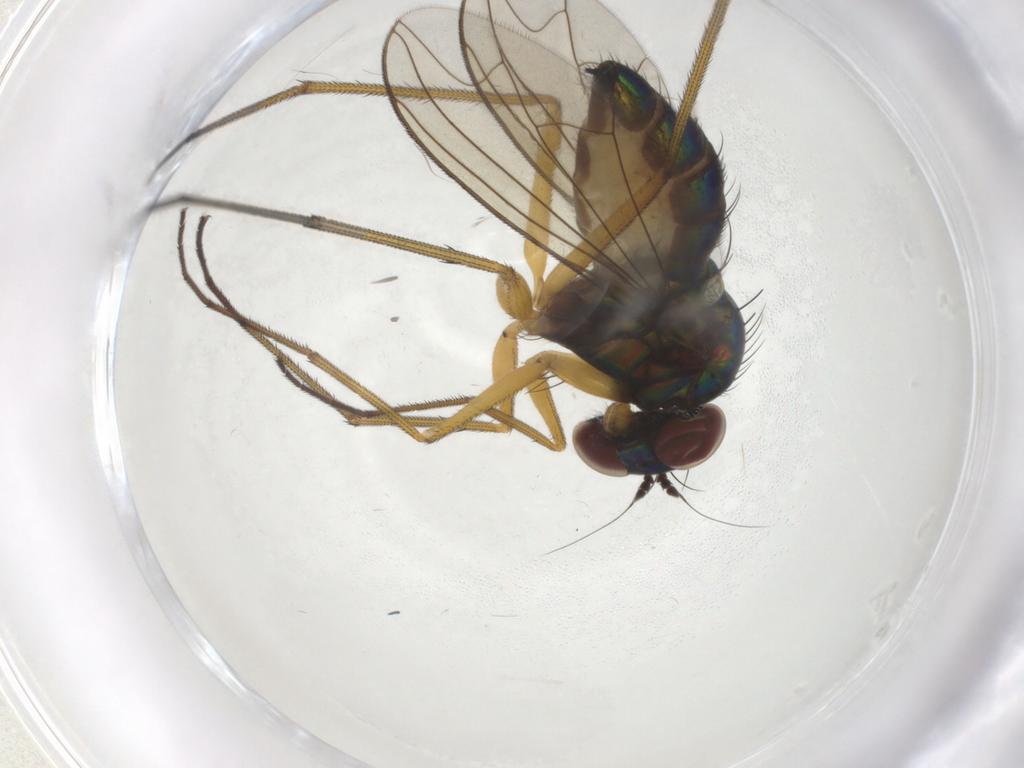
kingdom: Animalia
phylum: Arthropoda
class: Insecta
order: Diptera
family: Dolichopodidae
